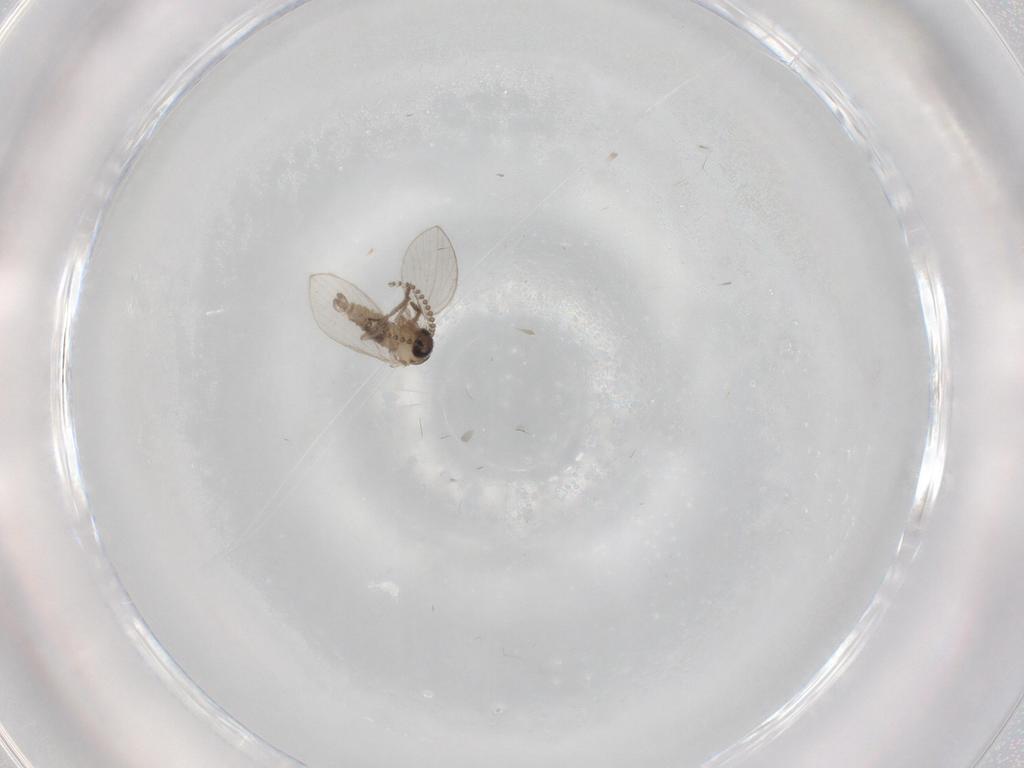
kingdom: Animalia
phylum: Arthropoda
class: Insecta
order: Diptera
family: Psychodidae
